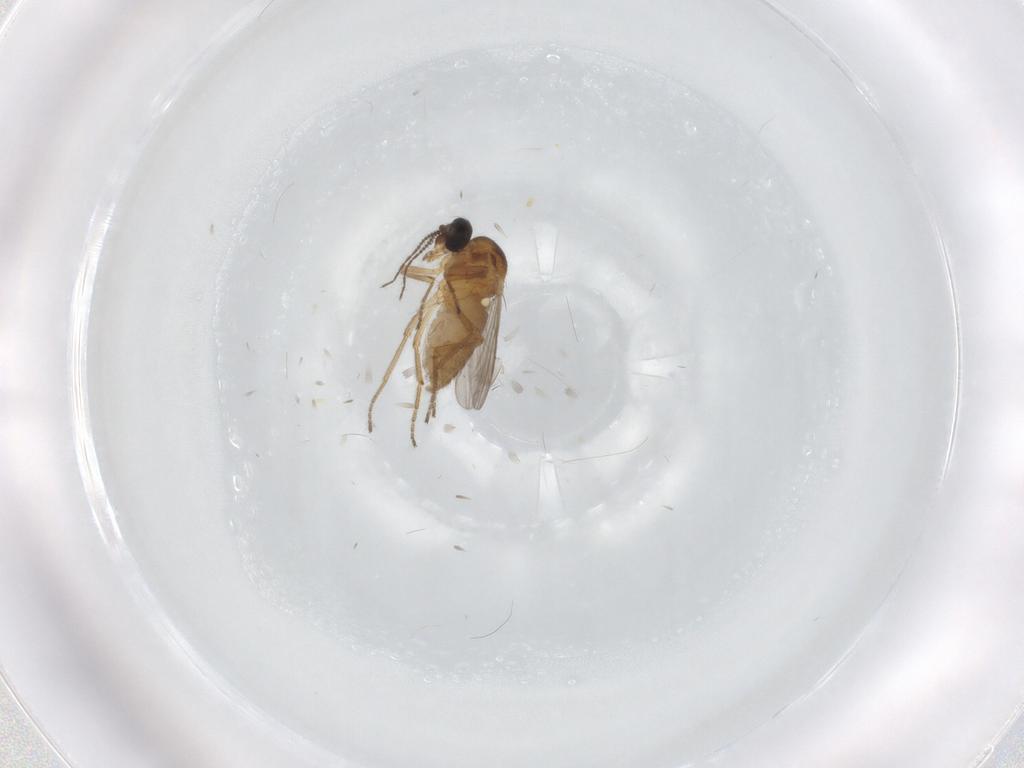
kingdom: Animalia
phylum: Arthropoda
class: Insecta
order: Diptera
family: Ceratopogonidae
